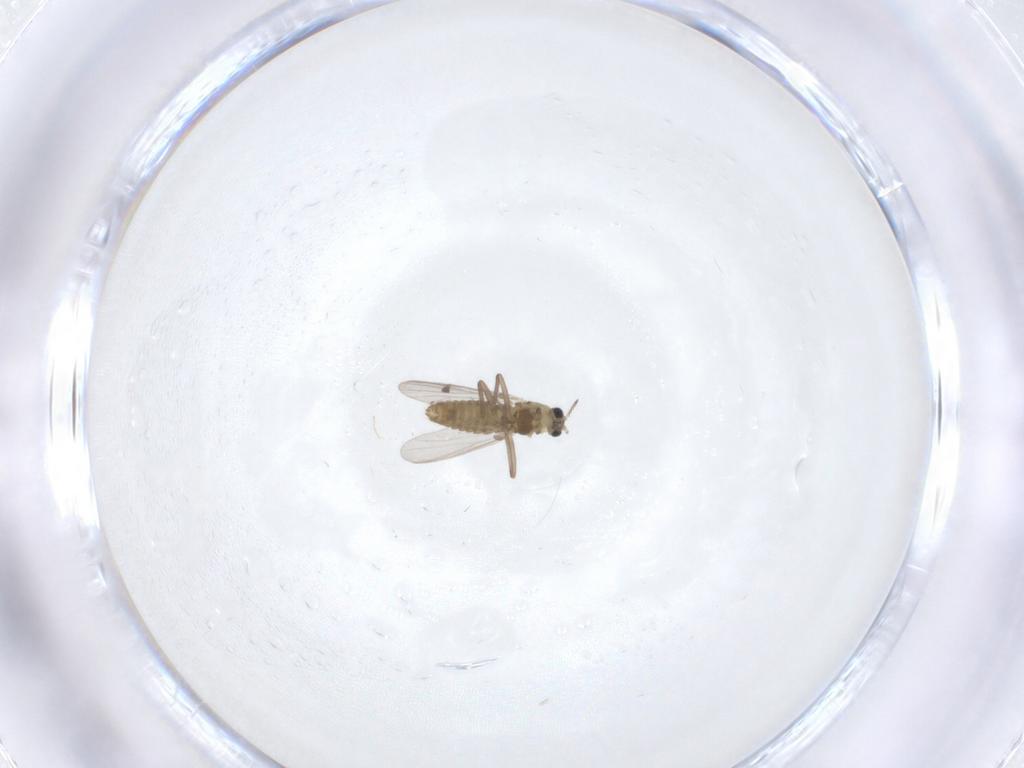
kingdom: Animalia
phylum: Arthropoda
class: Insecta
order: Diptera
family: Chironomidae
